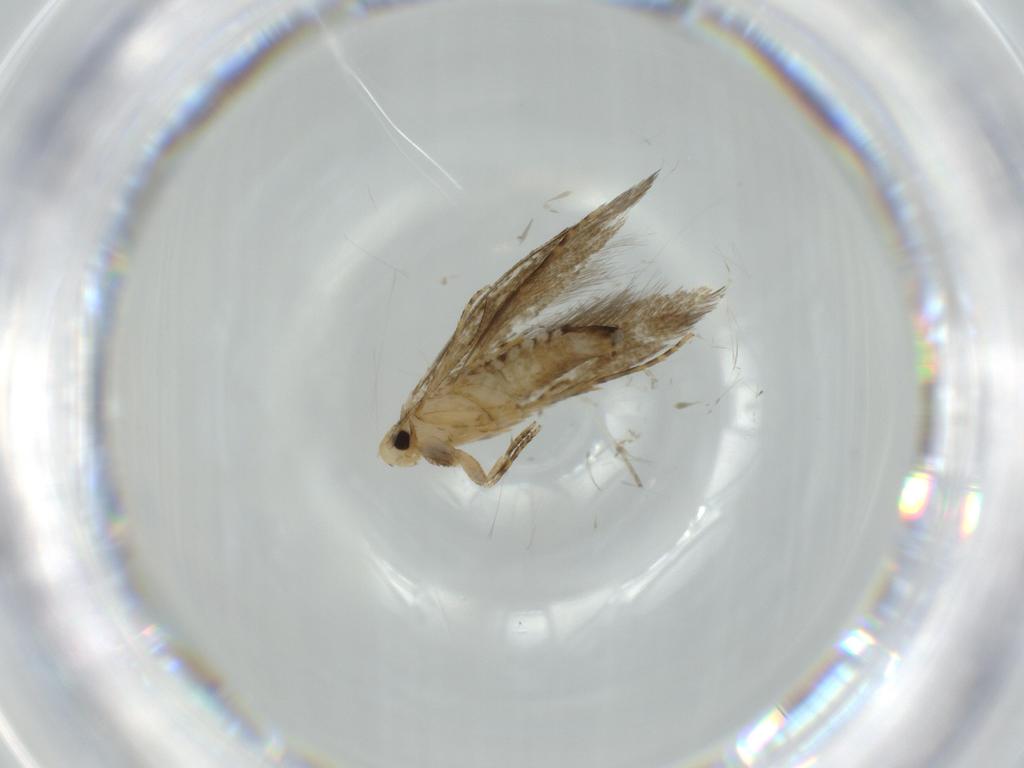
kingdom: Animalia
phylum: Arthropoda
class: Insecta
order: Lepidoptera
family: Tineidae
